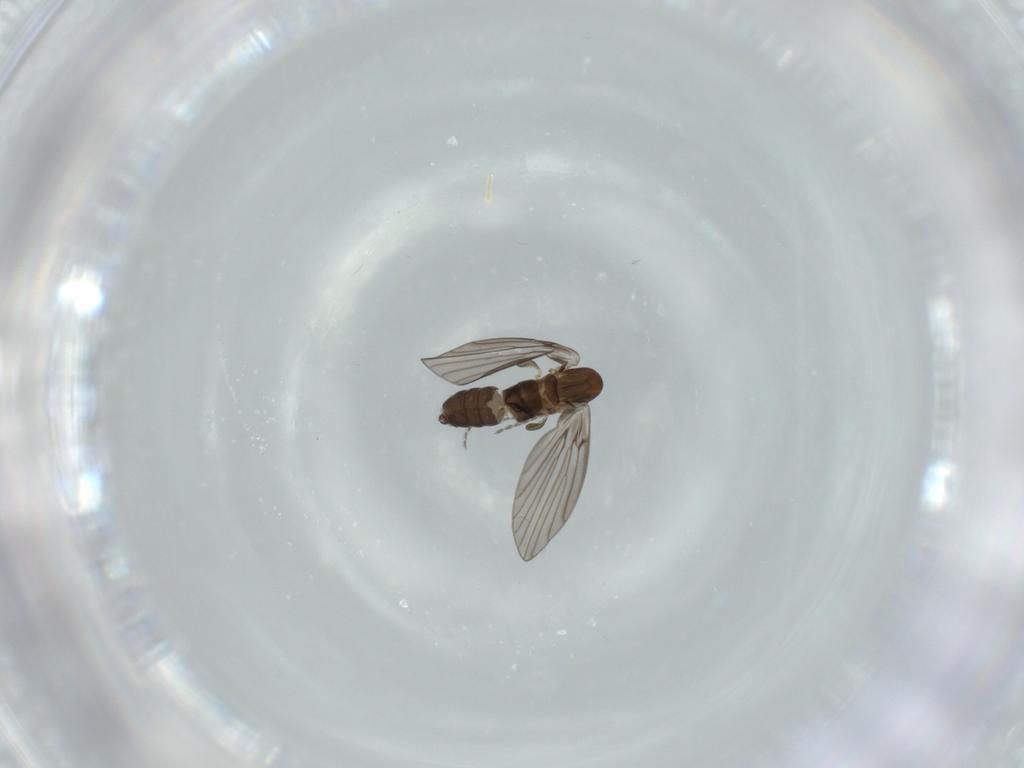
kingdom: Animalia
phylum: Arthropoda
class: Insecta
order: Diptera
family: Psychodidae
